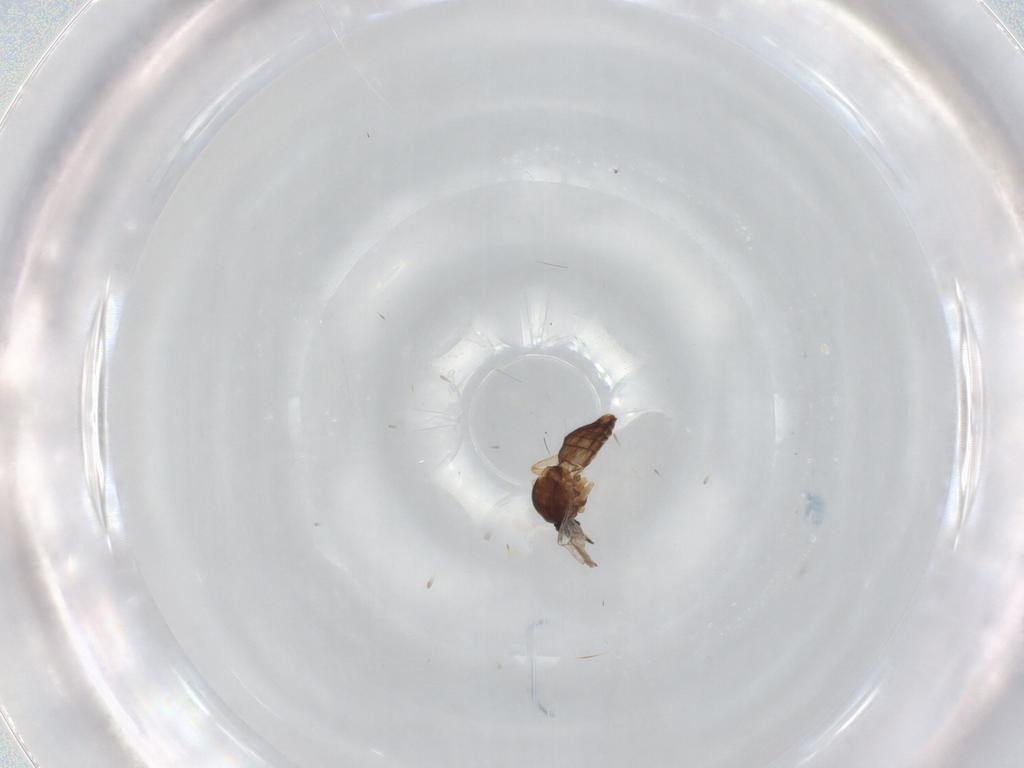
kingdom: Animalia
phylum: Arthropoda
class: Insecta
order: Diptera
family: Ceratopogonidae
